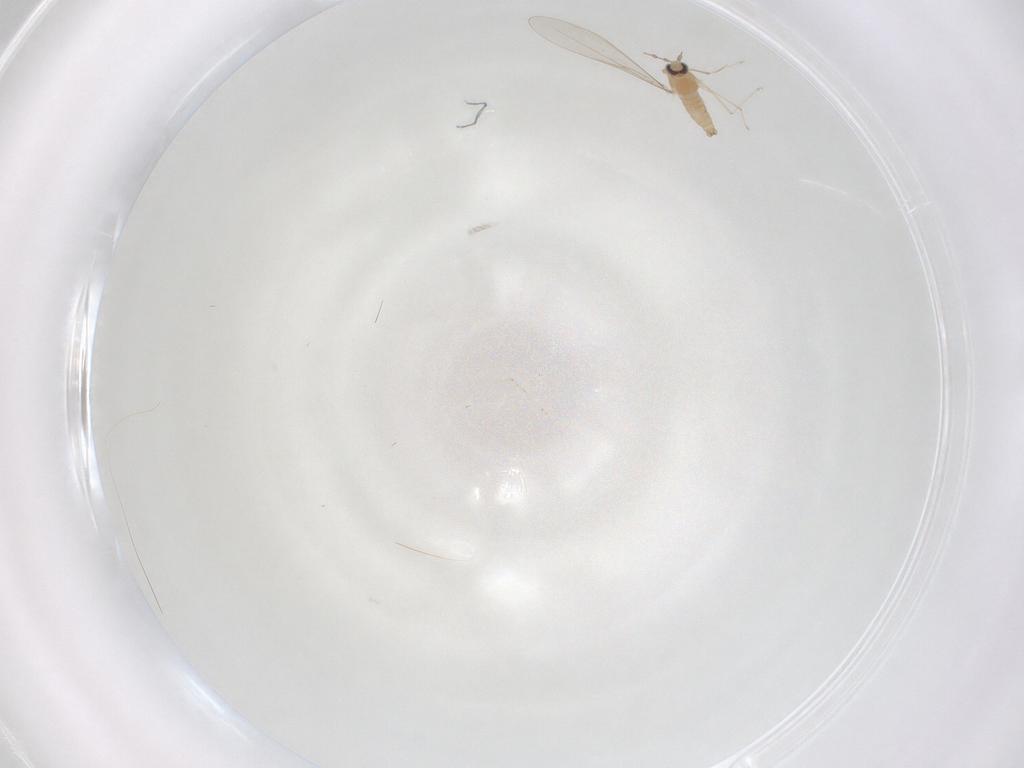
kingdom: Animalia
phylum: Arthropoda
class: Insecta
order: Diptera
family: Cecidomyiidae
